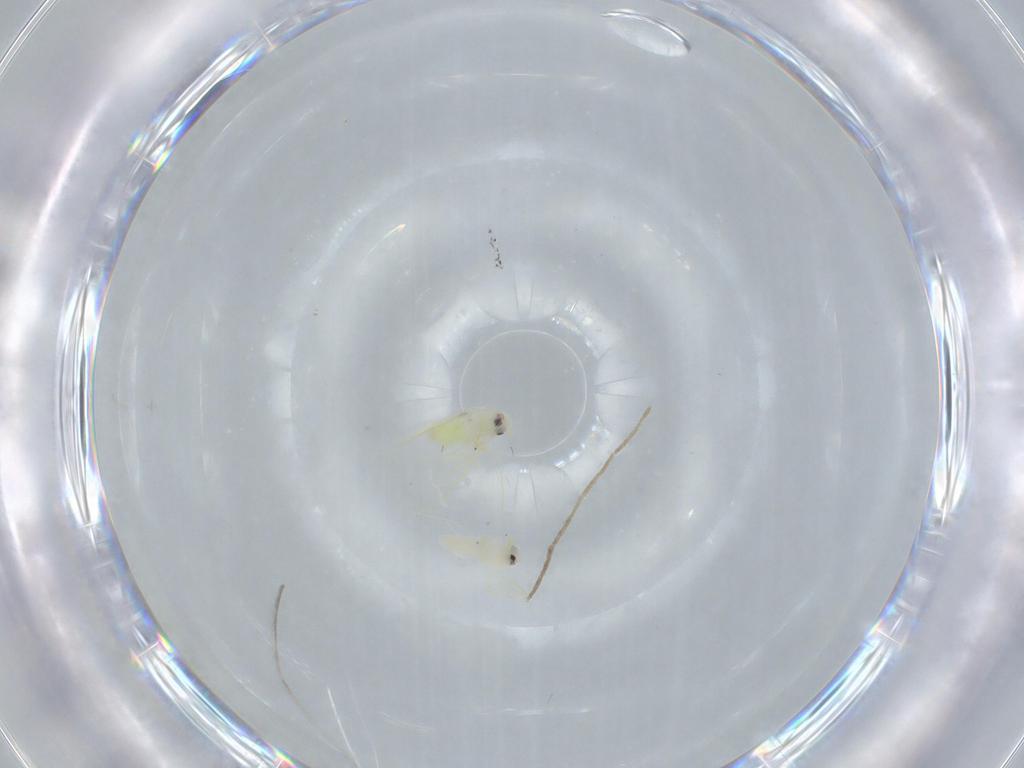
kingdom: Animalia
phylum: Arthropoda
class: Insecta
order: Hemiptera
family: Aleyrodidae
